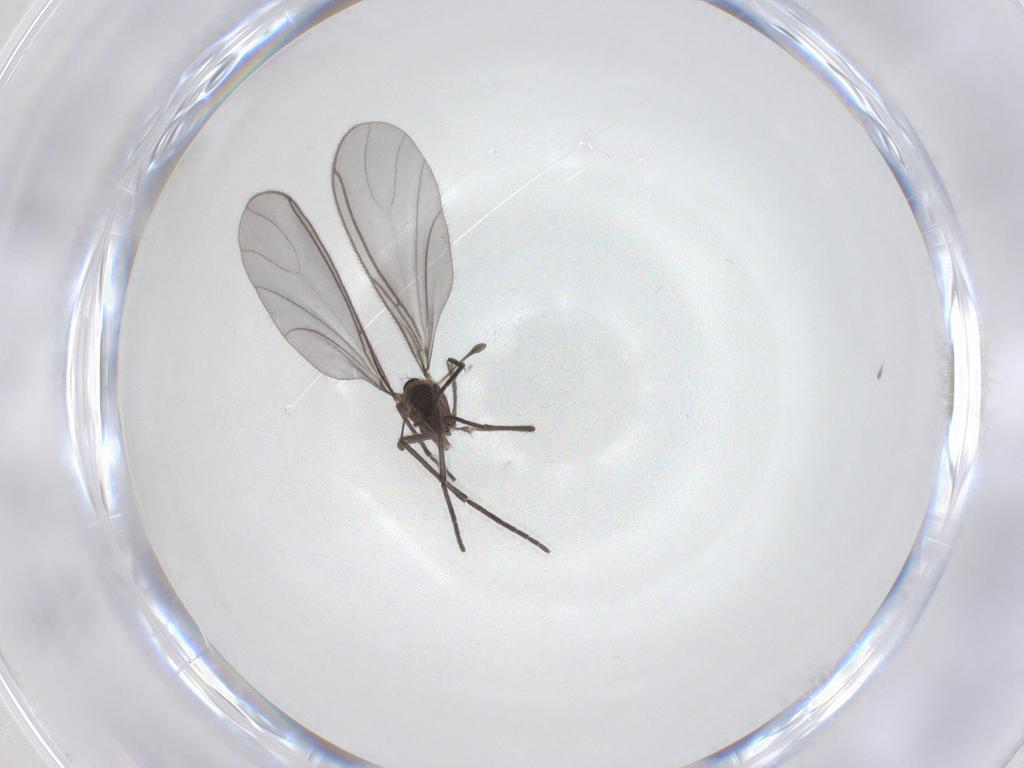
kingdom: Animalia
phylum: Arthropoda
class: Insecta
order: Diptera
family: Sciaridae
